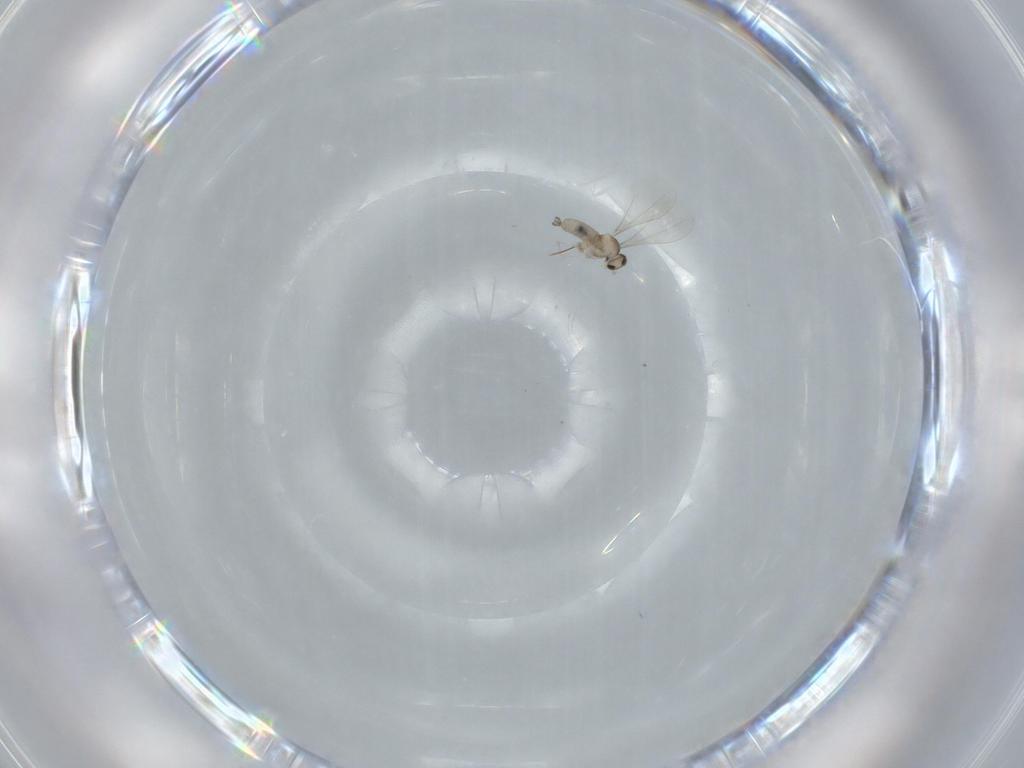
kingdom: Animalia
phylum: Arthropoda
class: Insecta
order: Diptera
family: Cecidomyiidae
